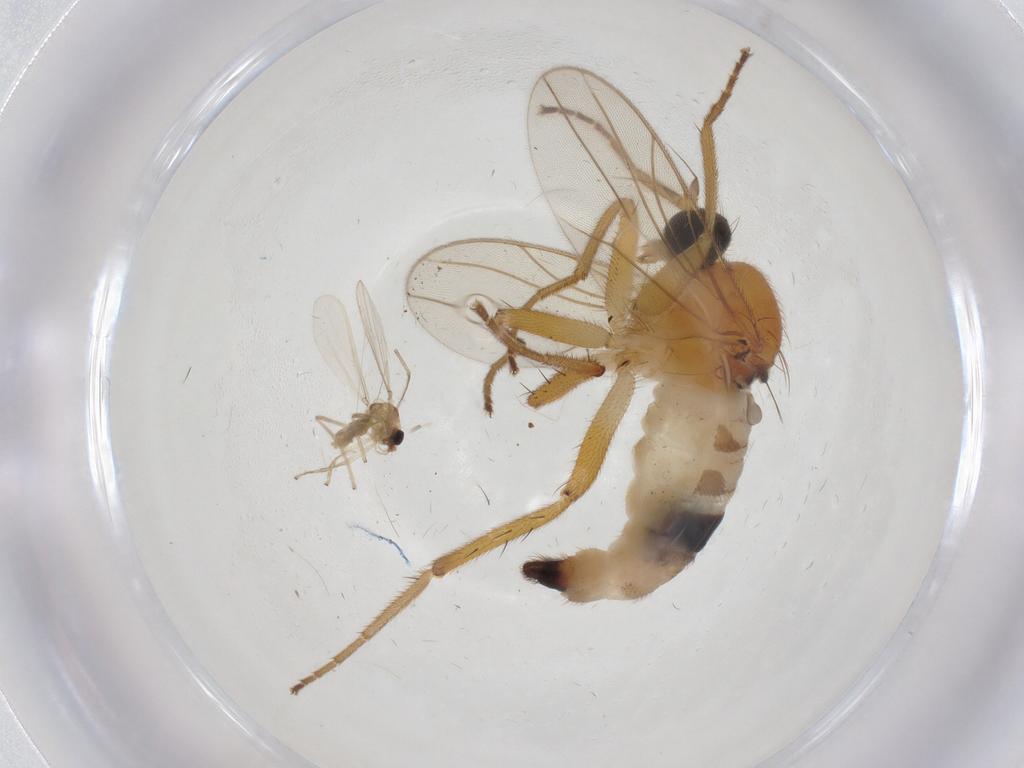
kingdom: Animalia
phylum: Arthropoda
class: Insecta
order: Diptera
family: Hybotidae
